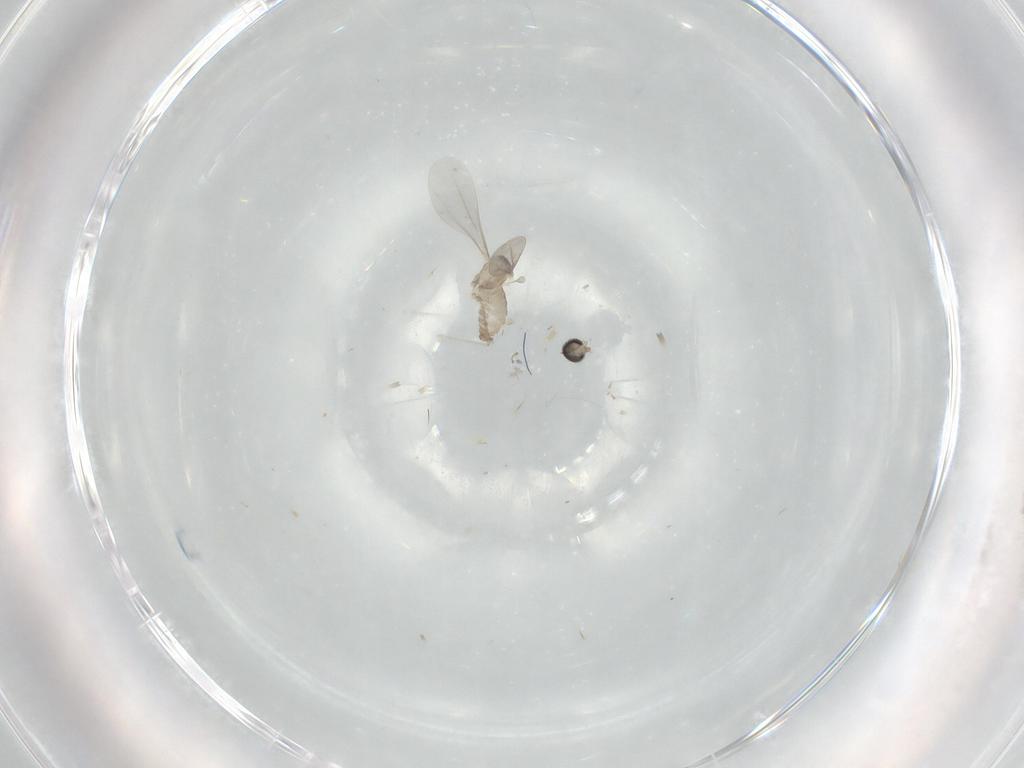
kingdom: Animalia
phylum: Arthropoda
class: Insecta
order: Diptera
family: Cecidomyiidae
